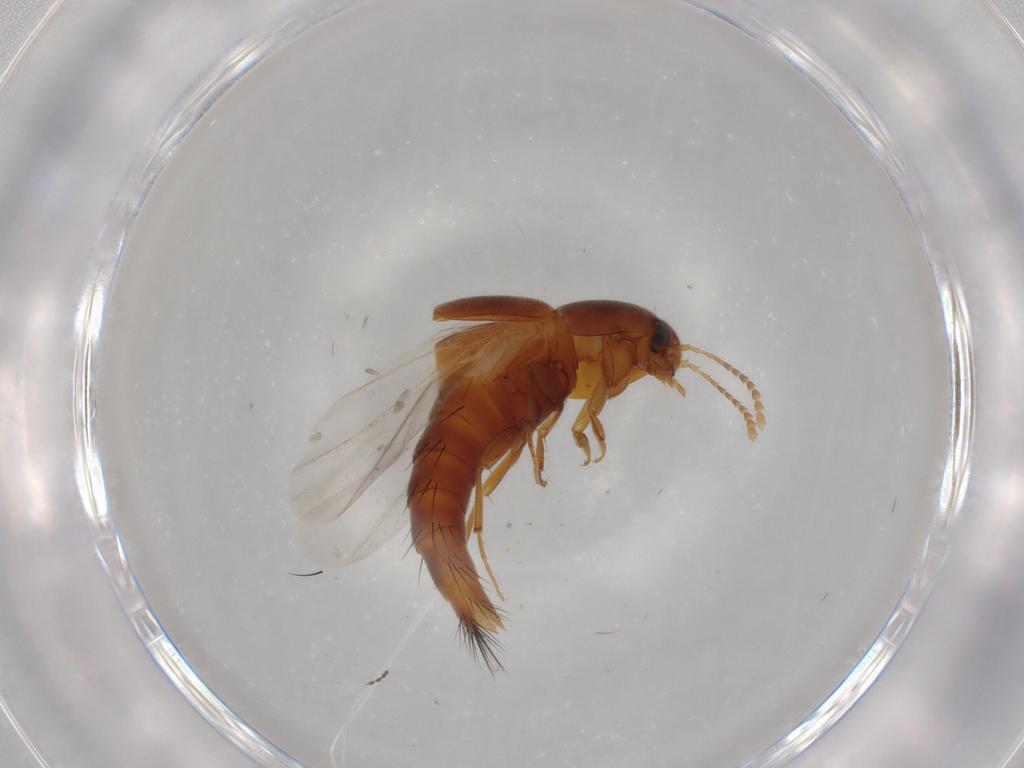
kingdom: Animalia
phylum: Arthropoda
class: Insecta
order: Coleoptera
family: Staphylinidae
